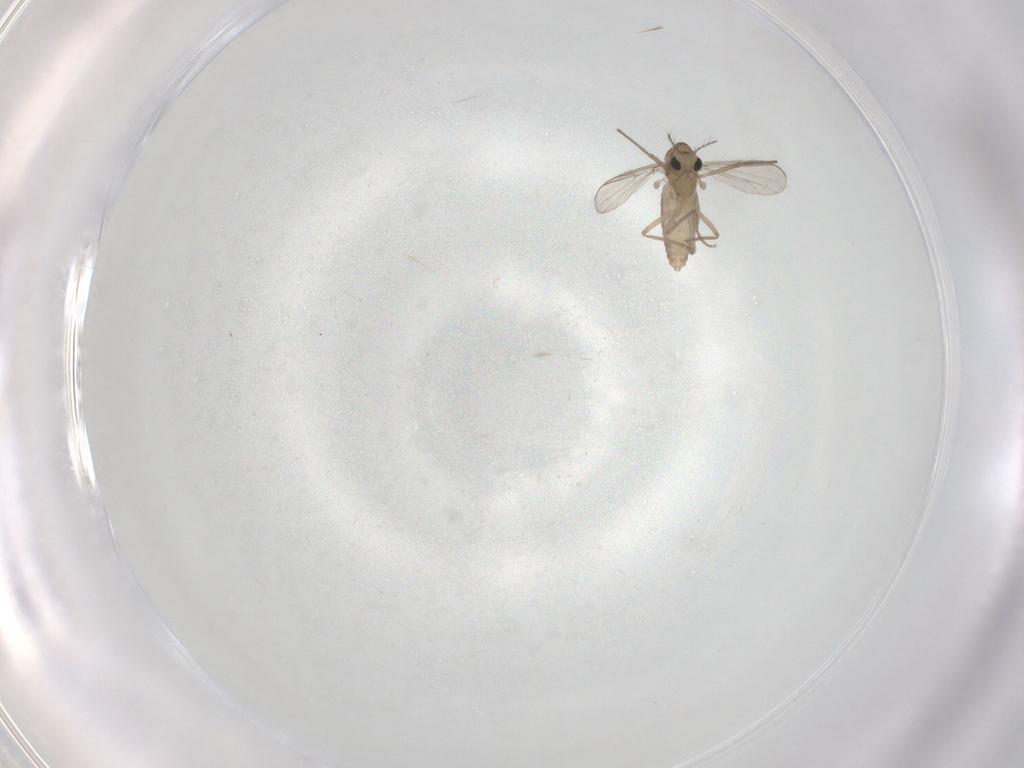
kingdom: Animalia
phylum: Arthropoda
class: Insecta
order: Diptera
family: Chironomidae
